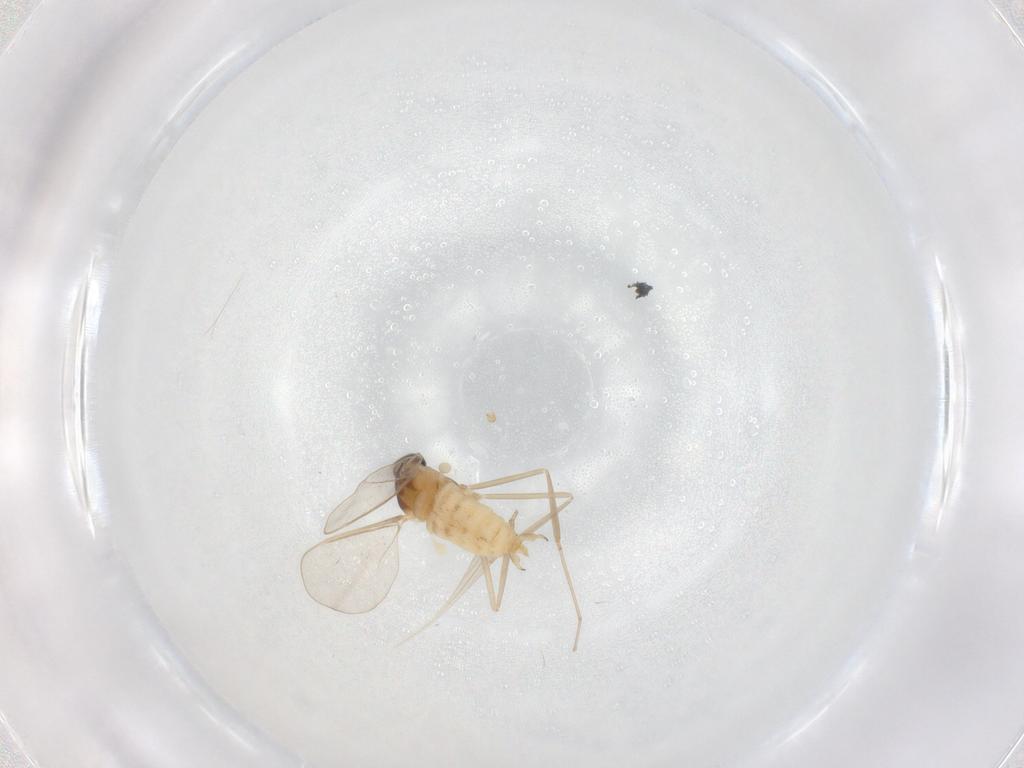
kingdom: Animalia
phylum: Arthropoda
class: Insecta
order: Diptera
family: Cecidomyiidae
